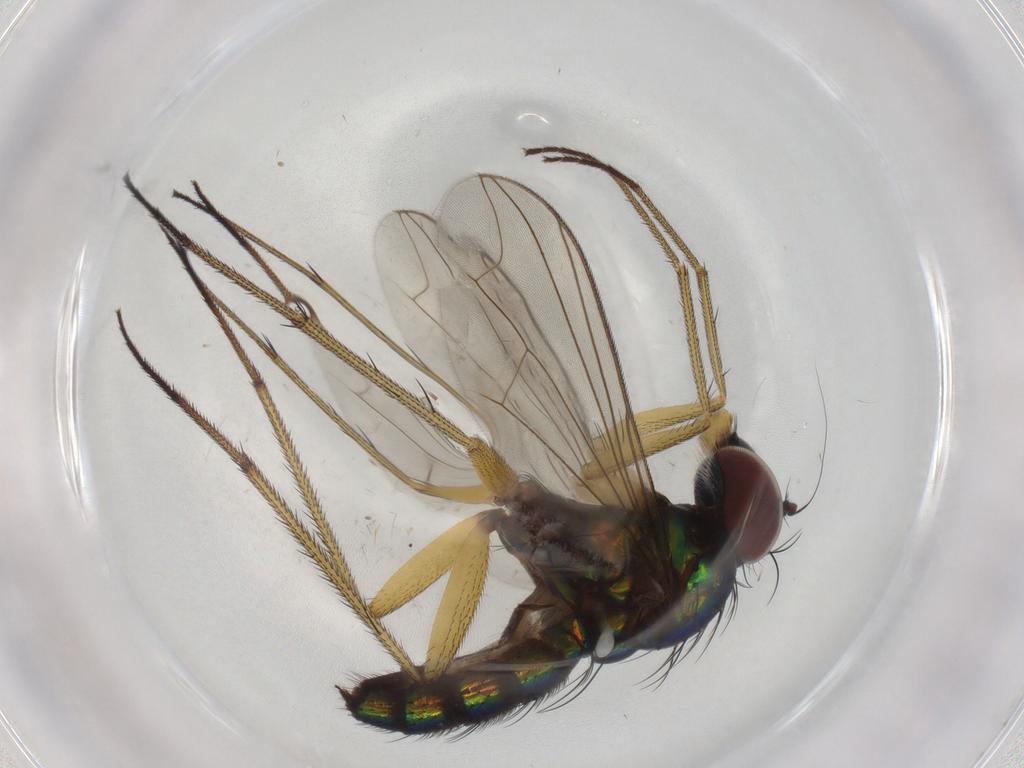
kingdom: Animalia
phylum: Arthropoda
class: Insecta
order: Diptera
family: Dolichopodidae
